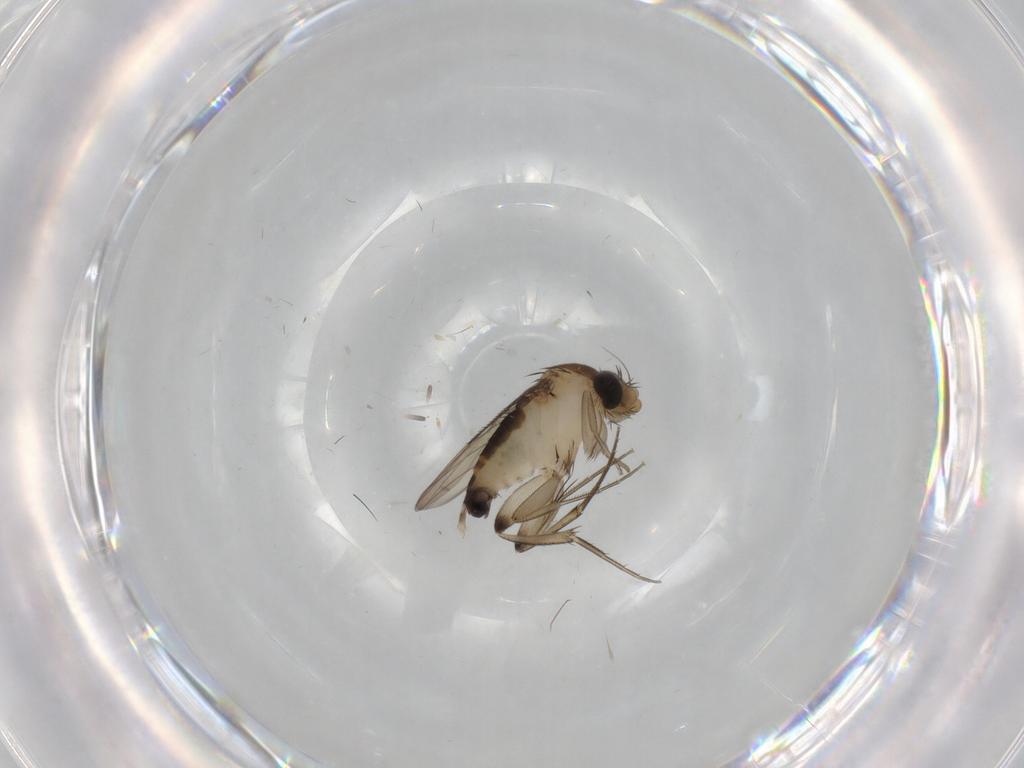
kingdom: Animalia
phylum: Arthropoda
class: Insecta
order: Diptera
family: Phoridae
